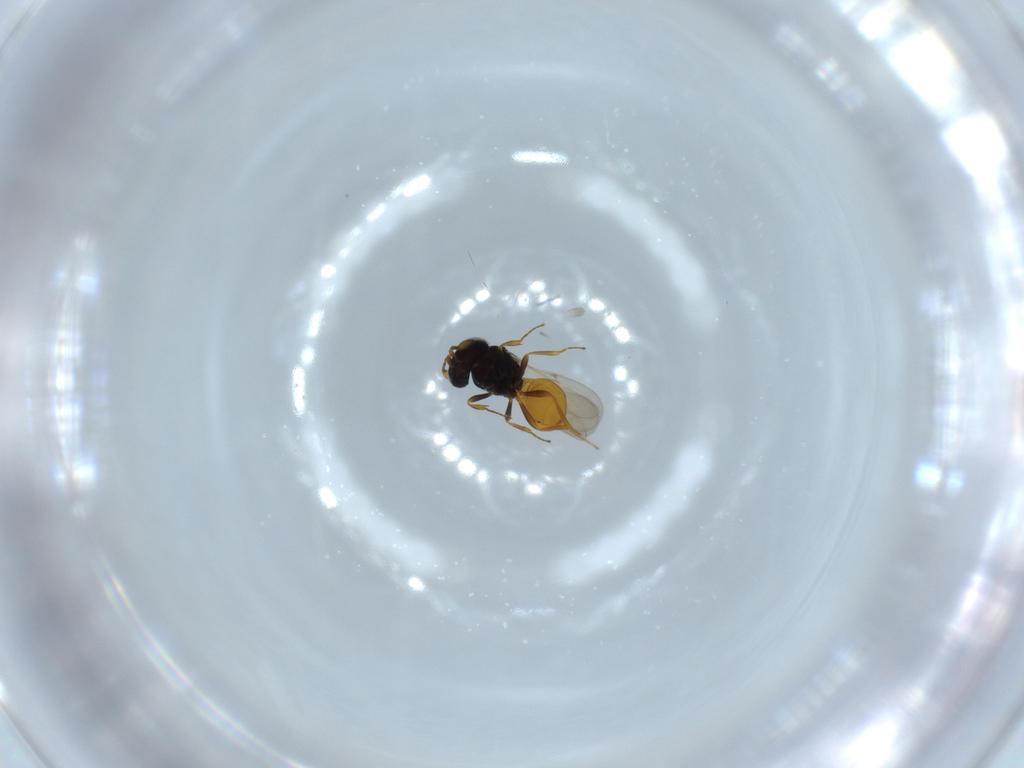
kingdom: Animalia
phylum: Arthropoda
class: Insecta
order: Hymenoptera
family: Scelionidae
